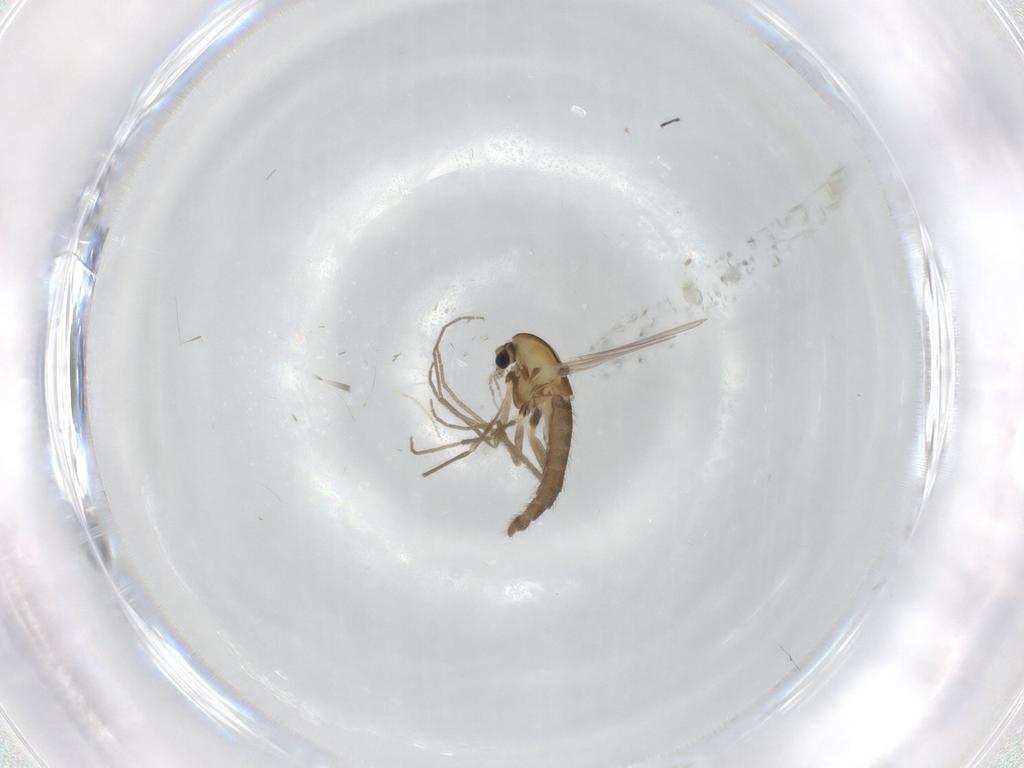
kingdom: Animalia
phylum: Arthropoda
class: Insecta
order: Diptera
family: Chironomidae
